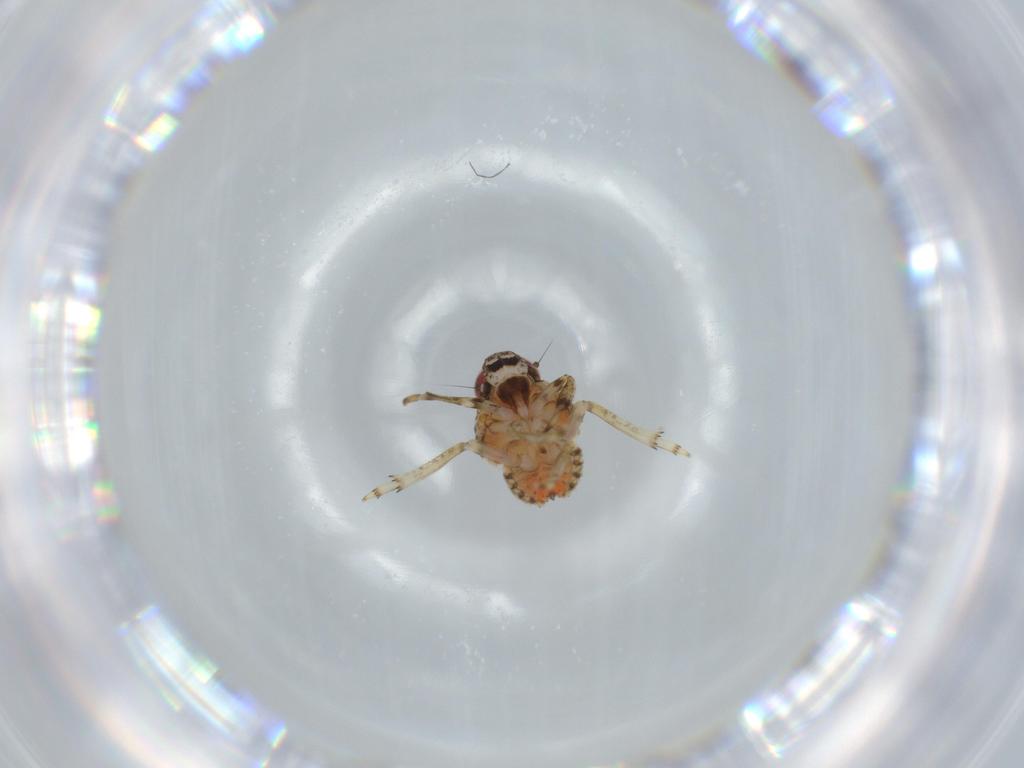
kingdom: Animalia
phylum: Arthropoda
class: Insecta
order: Hemiptera
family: Issidae
